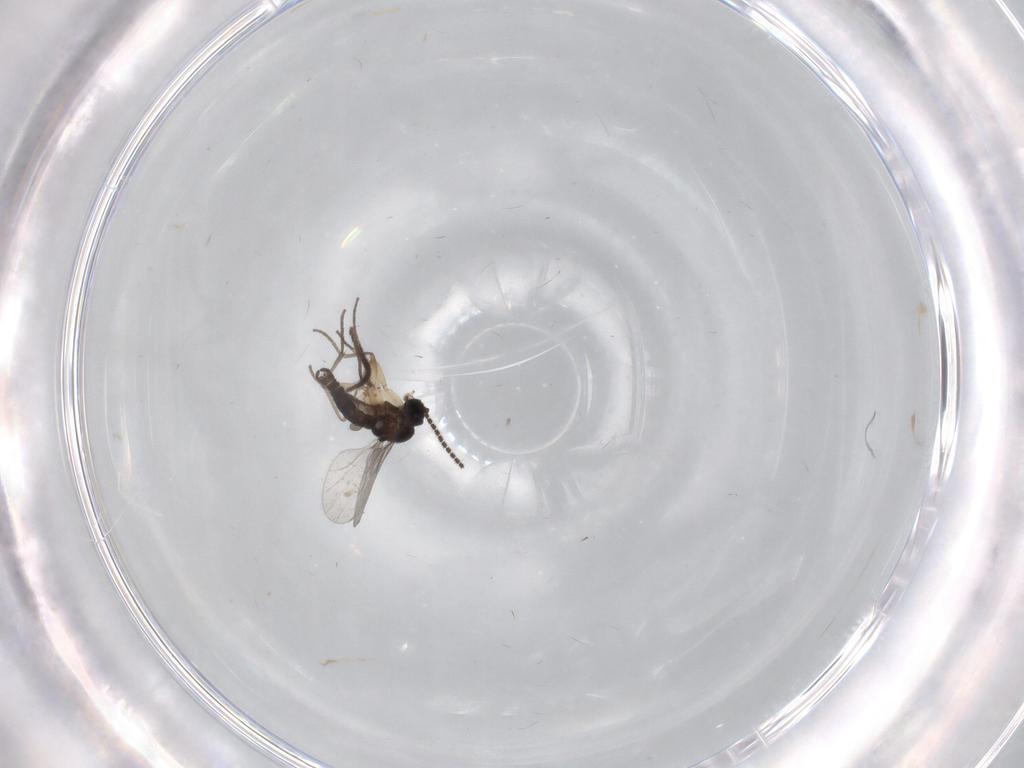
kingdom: Animalia
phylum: Arthropoda
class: Insecta
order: Diptera
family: Sciaridae
